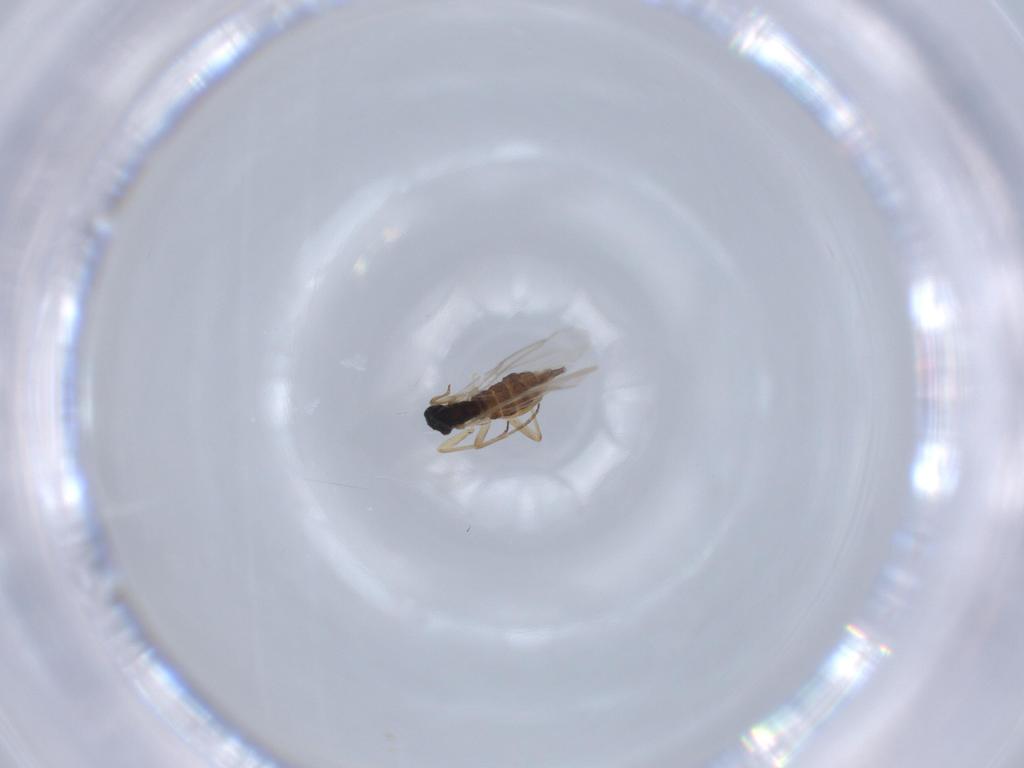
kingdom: Animalia
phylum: Arthropoda
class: Insecta
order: Diptera
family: Sciaridae
